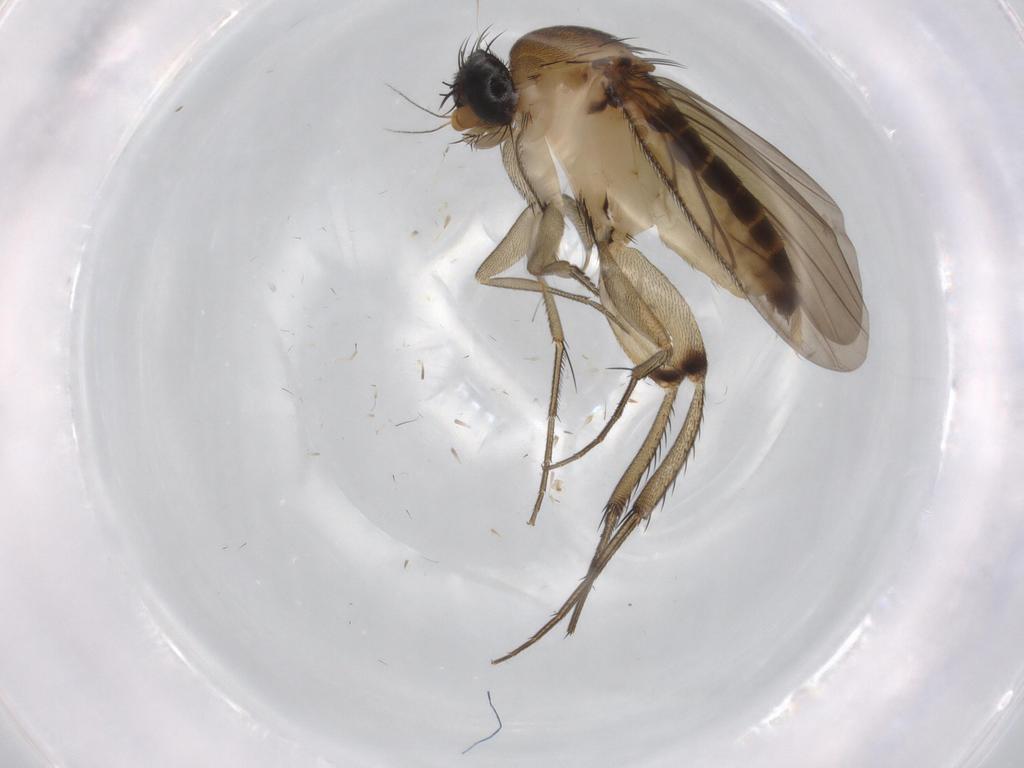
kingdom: Animalia
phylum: Arthropoda
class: Insecta
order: Diptera
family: Phoridae
